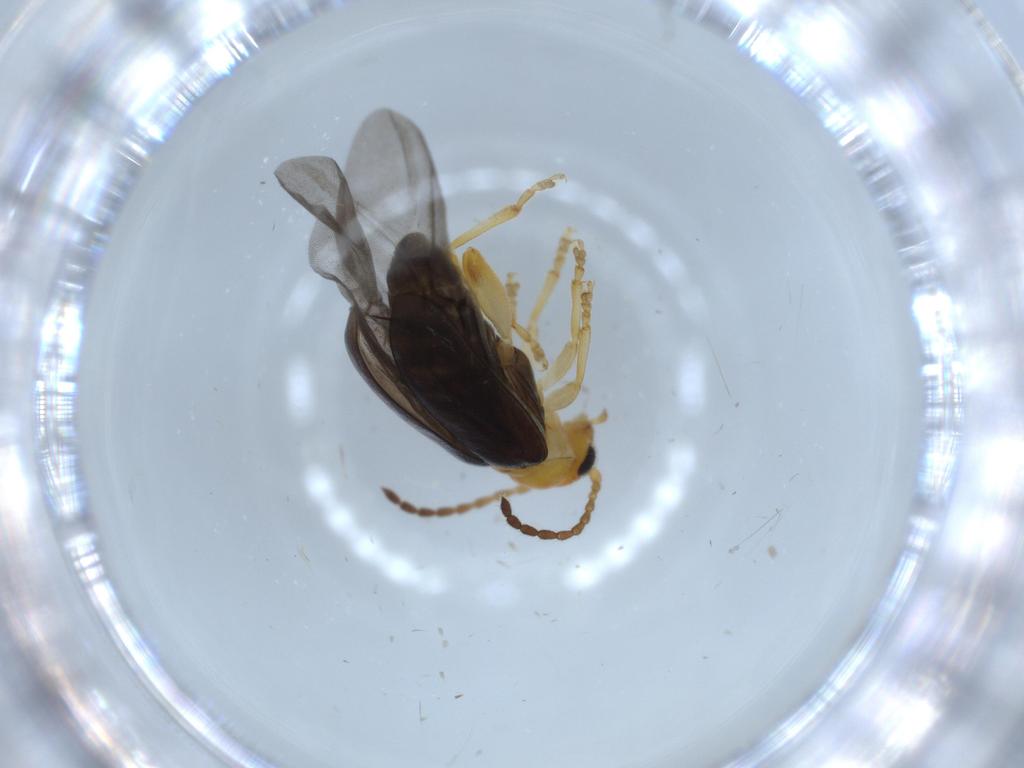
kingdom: Animalia
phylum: Arthropoda
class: Insecta
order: Coleoptera
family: Chrysomelidae
